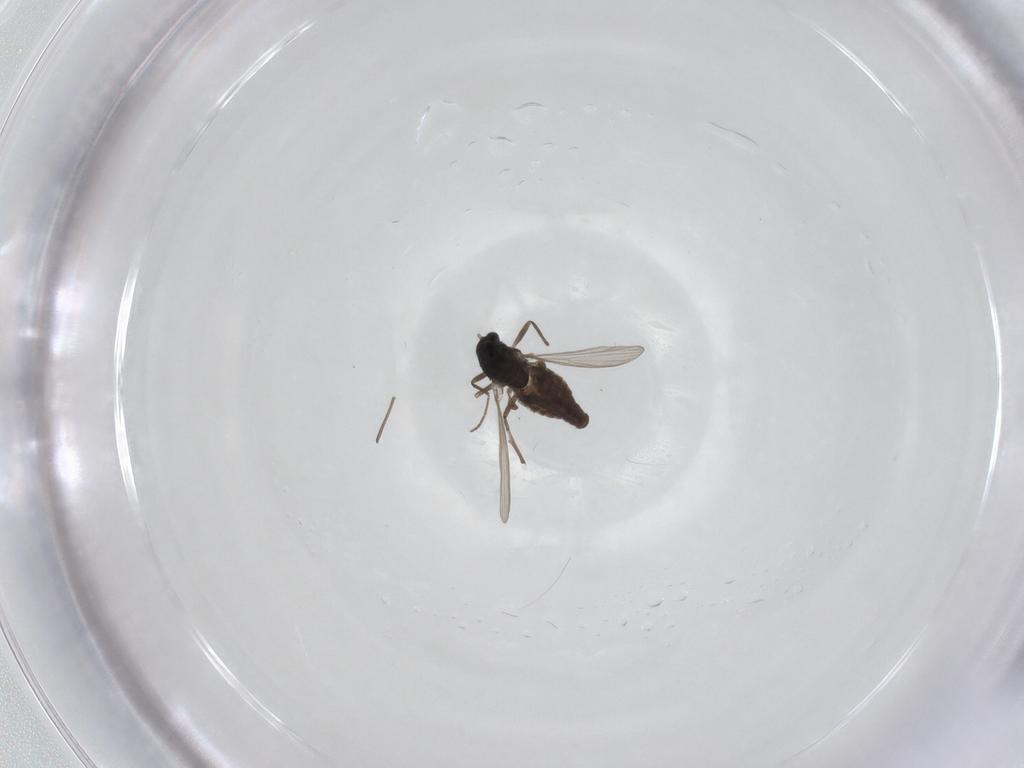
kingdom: Animalia
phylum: Arthropoda
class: Insecta
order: Diptera
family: Chironomidae
